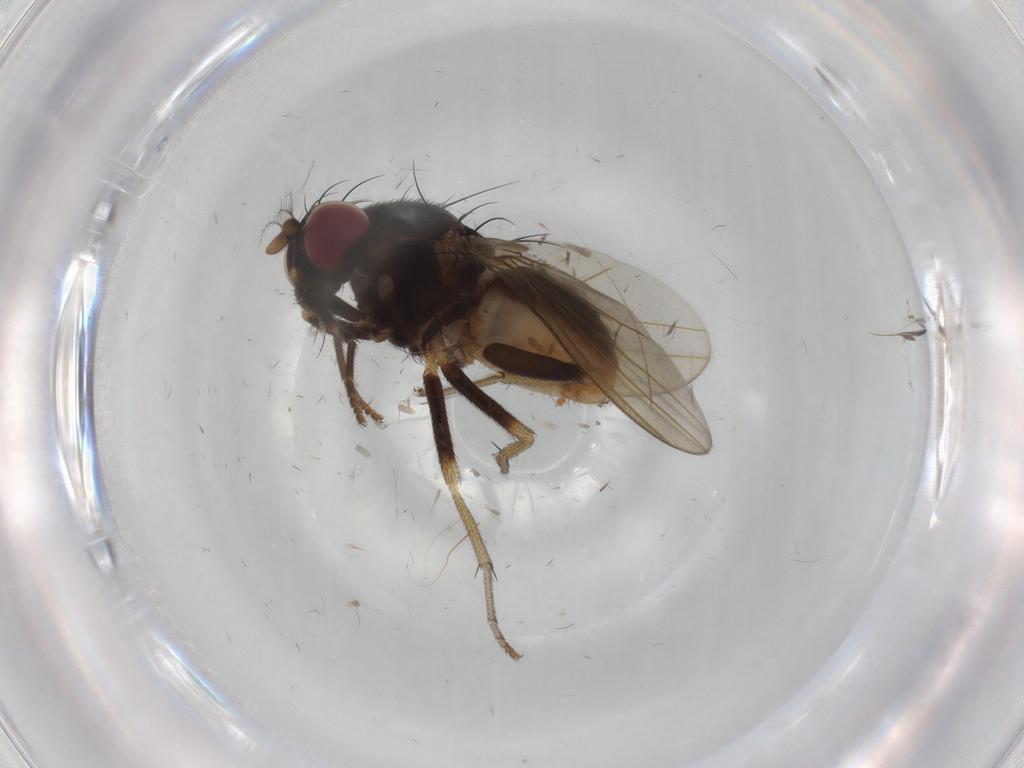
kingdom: Animalia
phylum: Arthropoda
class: Insecta
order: Diptera
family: Lauxaniidae
